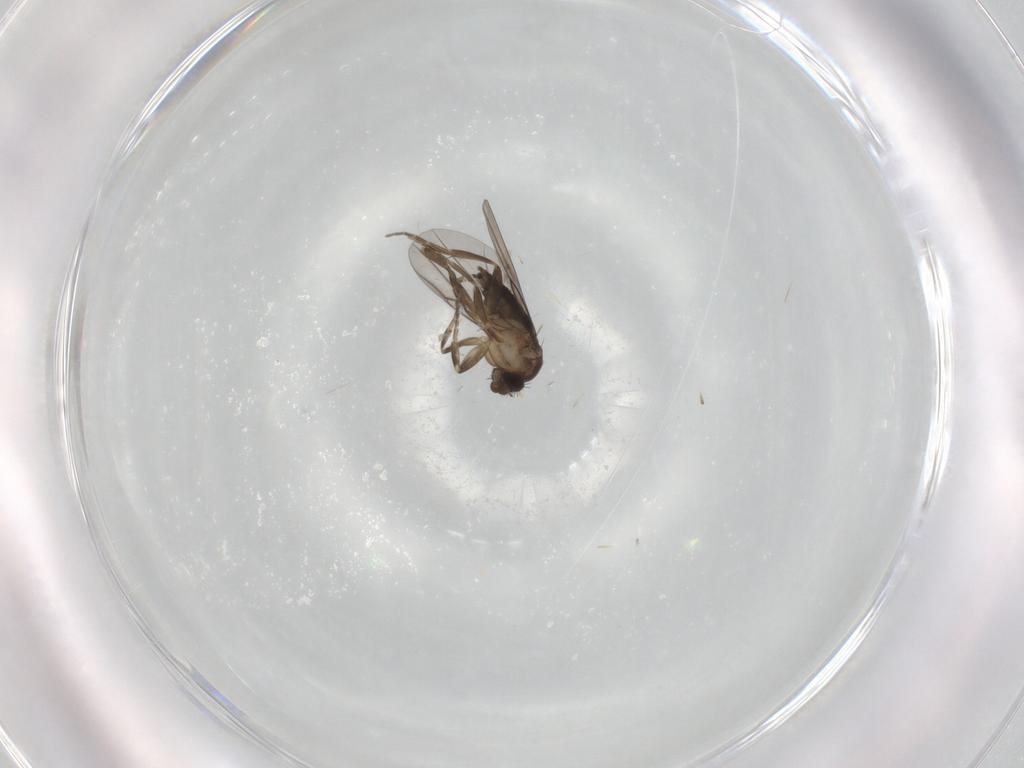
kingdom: Animalia
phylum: Arthropoda
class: Insecta
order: Diptera
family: Phoridae
